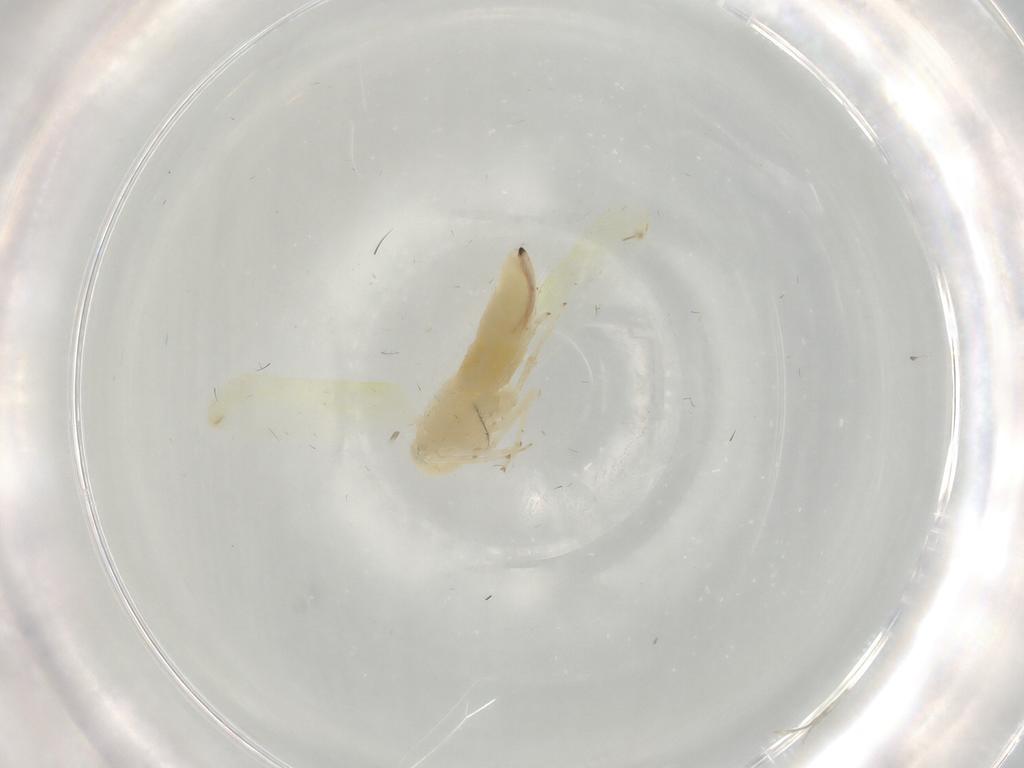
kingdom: Animalia
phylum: Arthropoda
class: Insecta
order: Hemiptera
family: Cicadellidae
